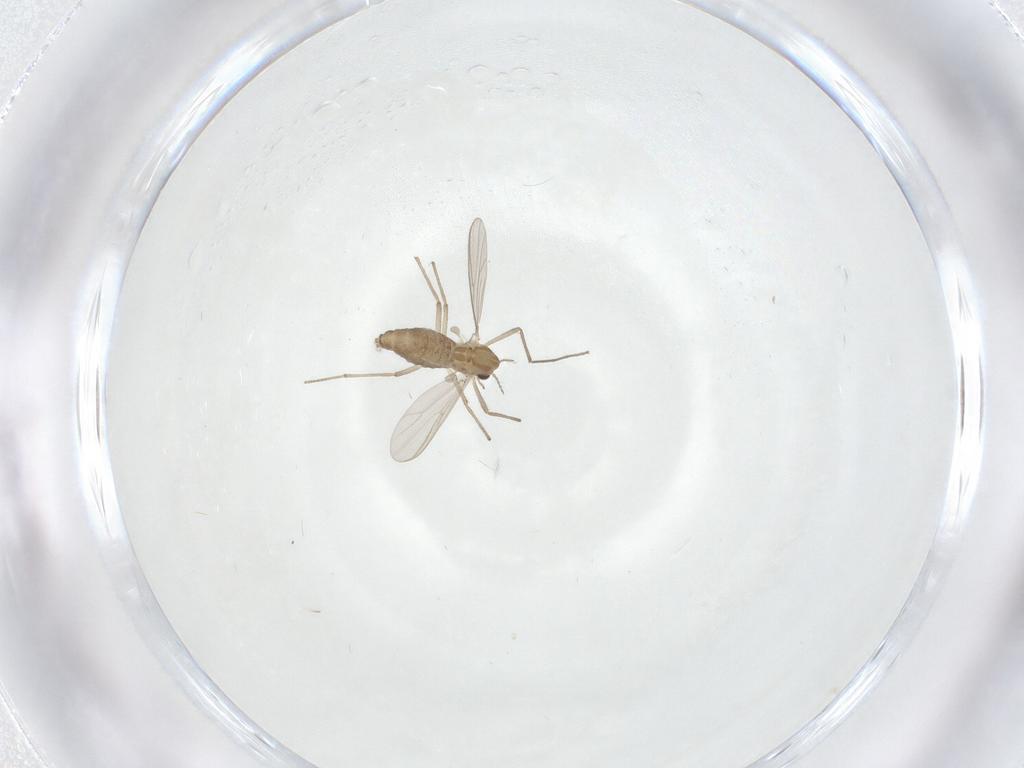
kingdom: Animalia
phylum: Arthropoda
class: Insecta
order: Diptera
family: Chironomidae
